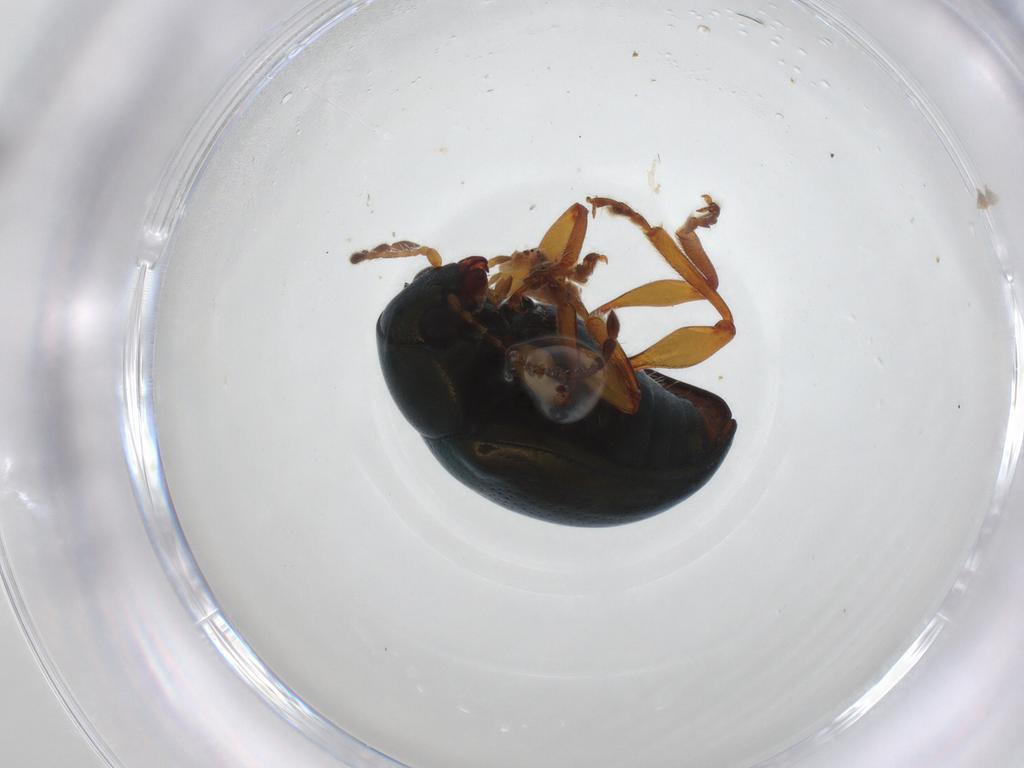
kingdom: Animalia
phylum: Arthropoda
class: Insecta
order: Coleoptera
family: Chrysomelidae
